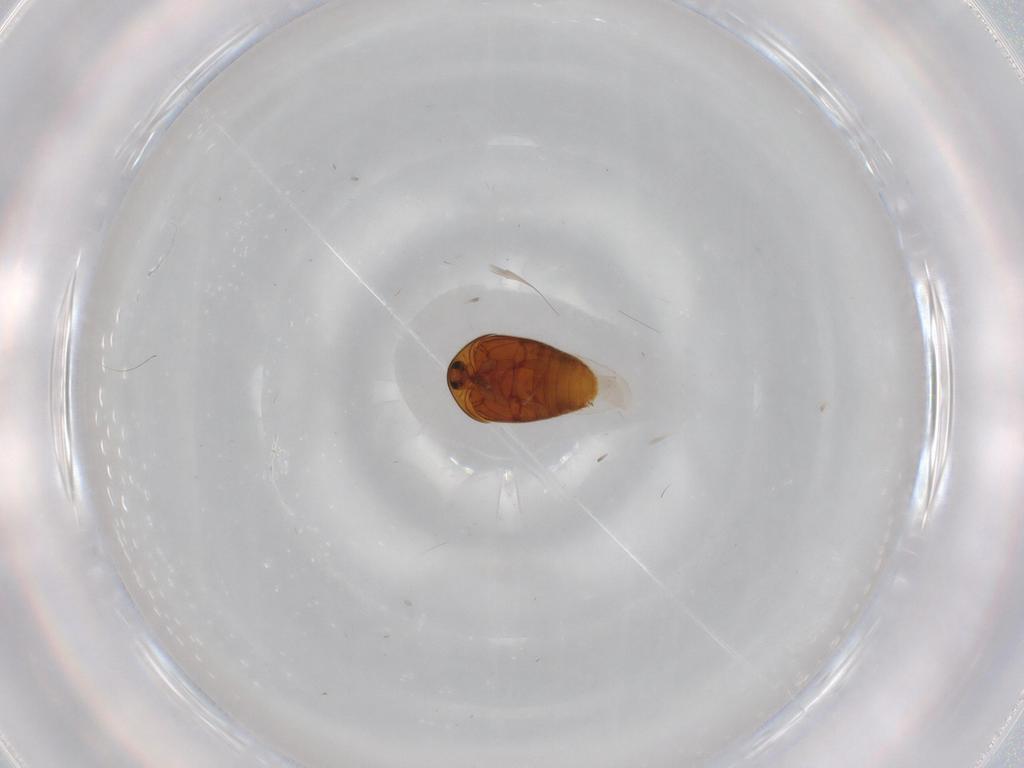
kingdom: Animalia
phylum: Arthropoda
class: Insecta
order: Coleoptera
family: Corylophidae
